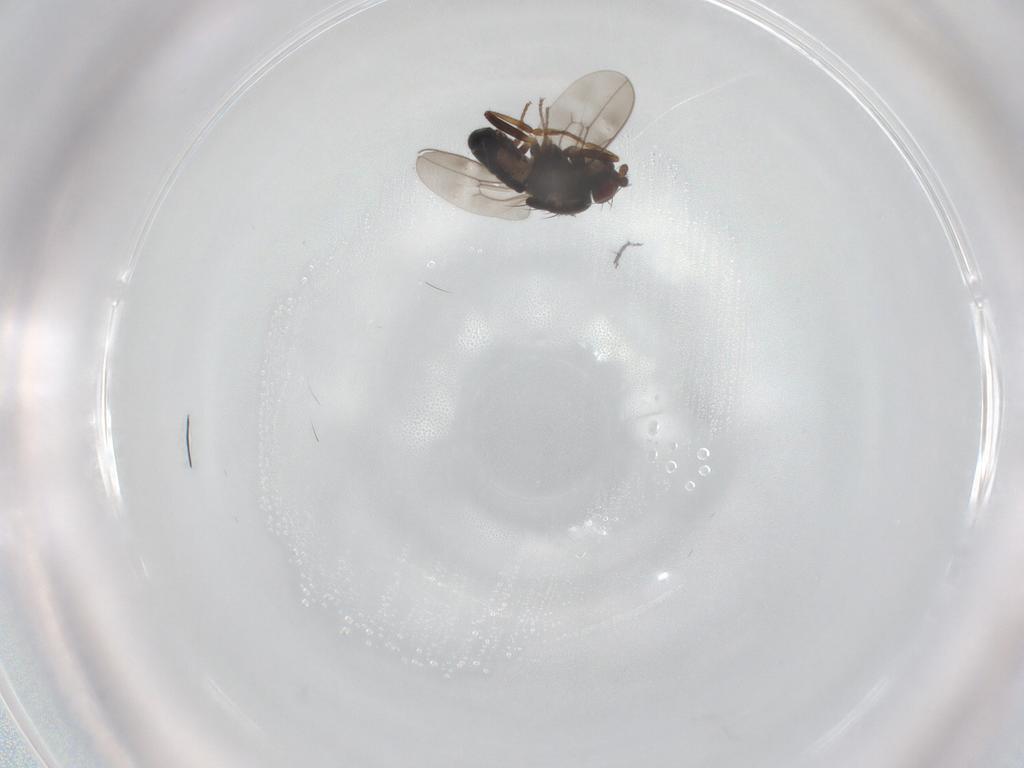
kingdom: Animalia
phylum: Arthropoda
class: Insecta
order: Diptera
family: Sphaeroceridae
